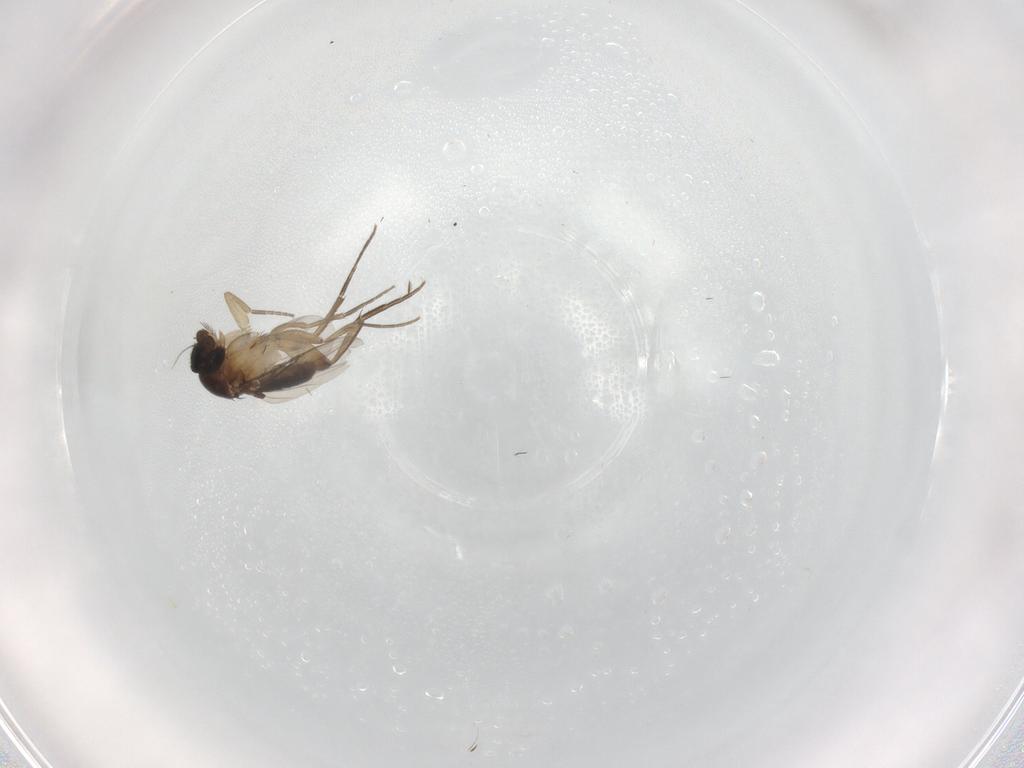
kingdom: Animalia
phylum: Arthropoda
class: Insecta
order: Diptera
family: Phoridae
